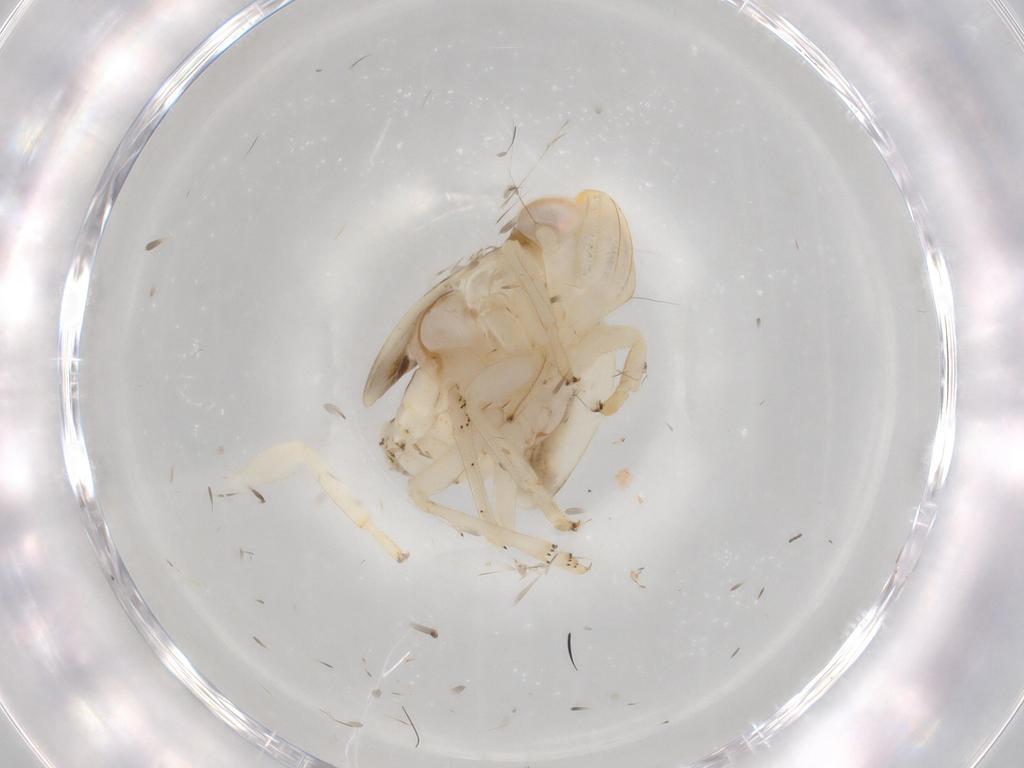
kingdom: Animalia
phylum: Arthropoda
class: Insecta
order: Hemiptera
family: Nogodinidae
